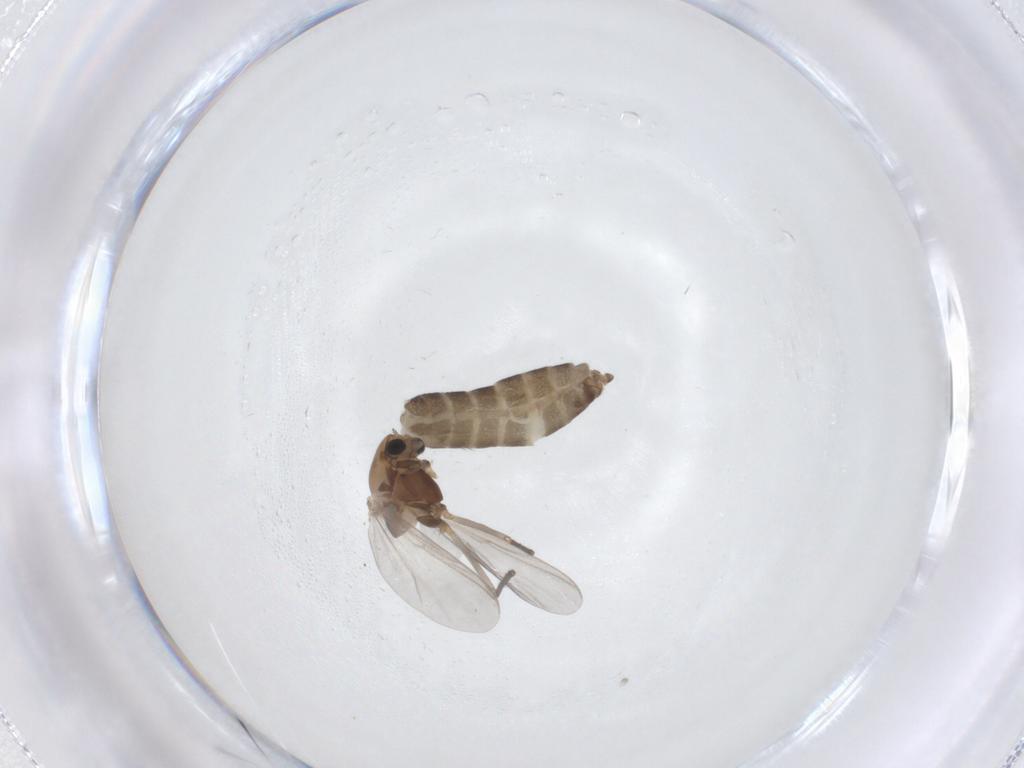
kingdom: Animalia
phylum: Arthropoda
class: Insecta
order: Diptera
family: Chironomidae
